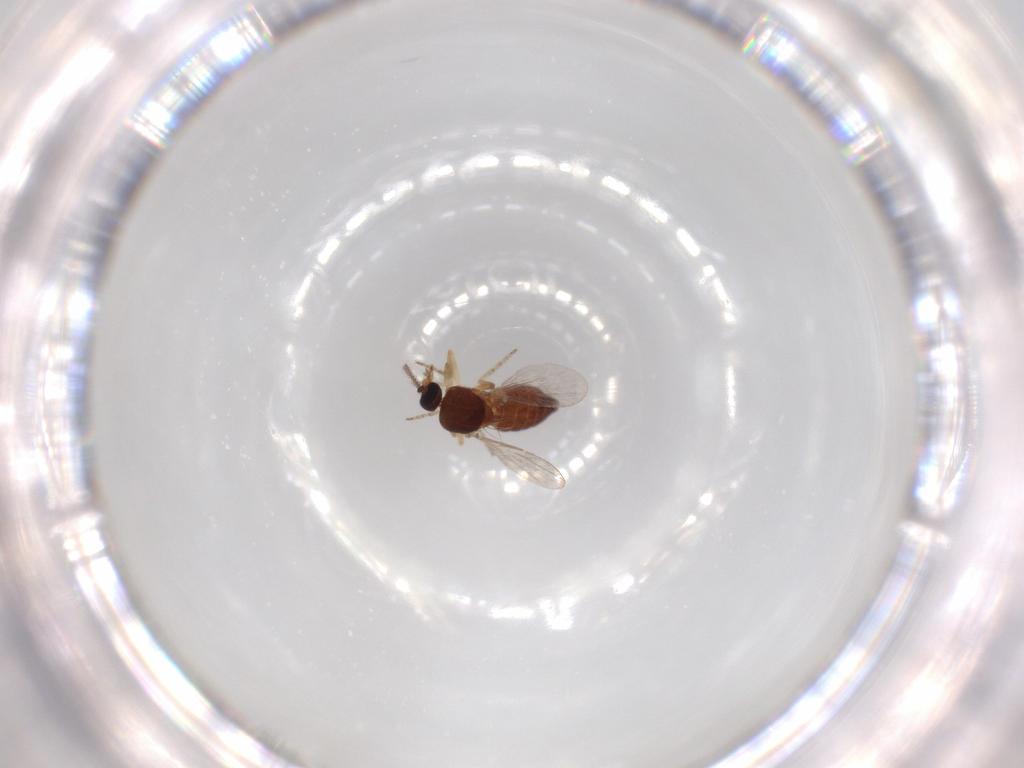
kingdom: Animalia
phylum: Arthropoda
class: Insecta
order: Diptera
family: Ceratopogonidae
